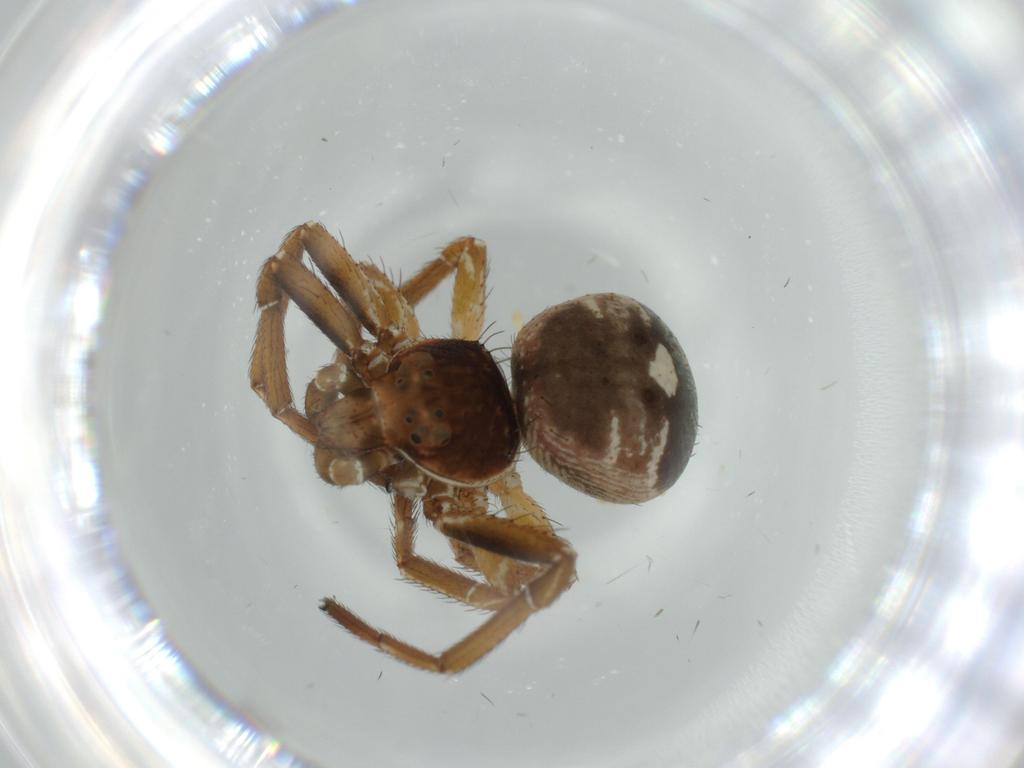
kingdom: Animalia
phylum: Arthropoda
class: Arachnida
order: Araneae
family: Thomisidae
